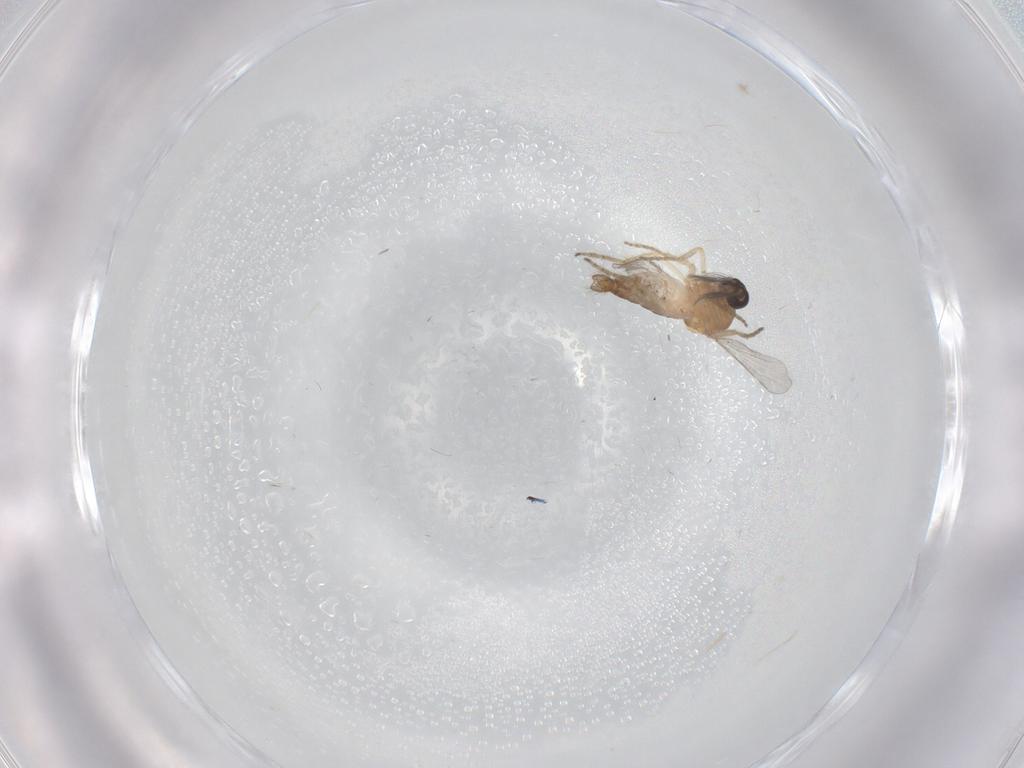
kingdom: Animalia
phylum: Arthropoda
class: Insecta
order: Diptera
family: Ceratopogonidae
